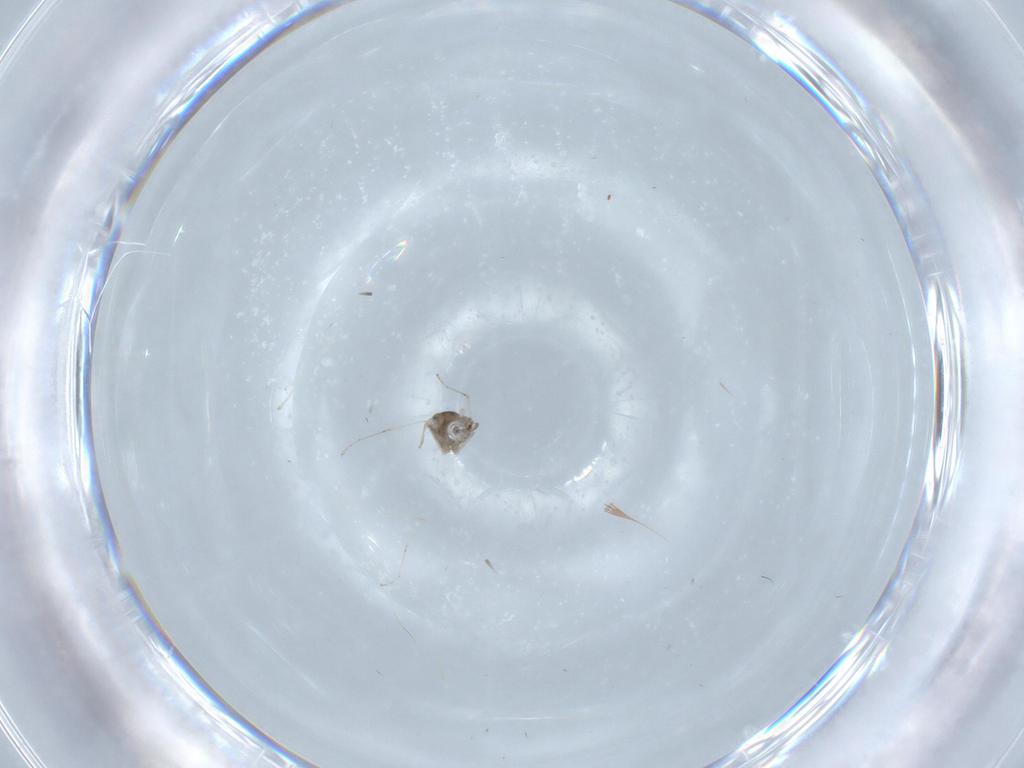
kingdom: Animalia
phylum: Arthropoda
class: Insecta
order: Diptera
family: Cecidomyiidae
